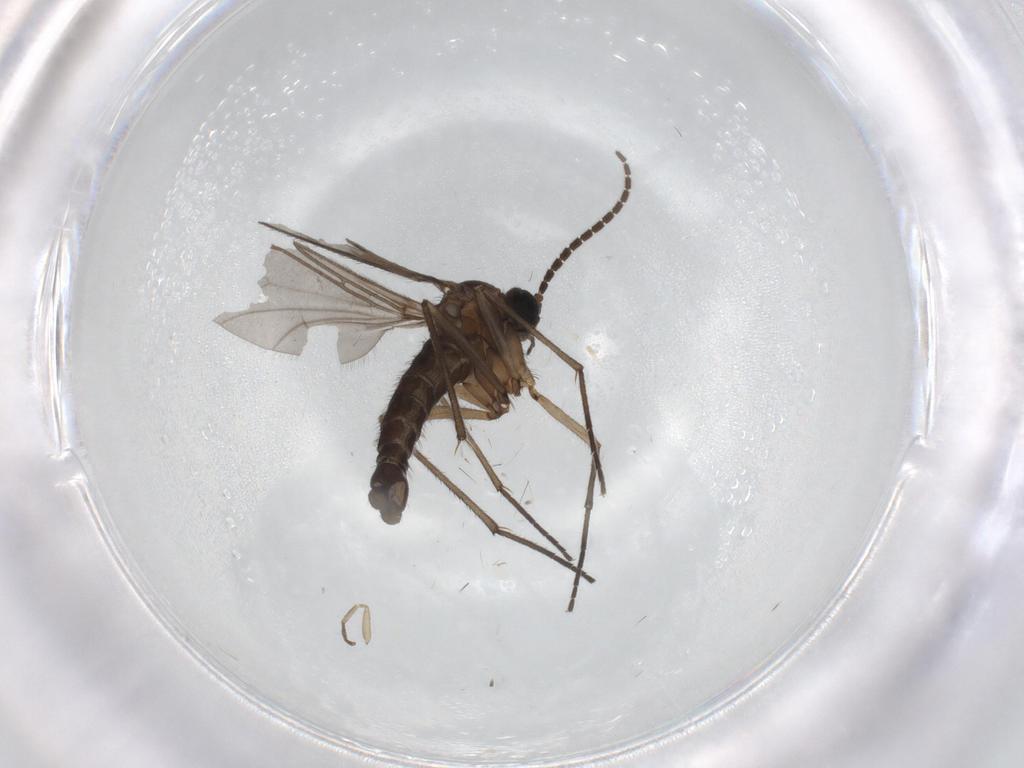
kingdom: Animalia
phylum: Arthropoda
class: Insecta
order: Diptera
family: Sciaridae
